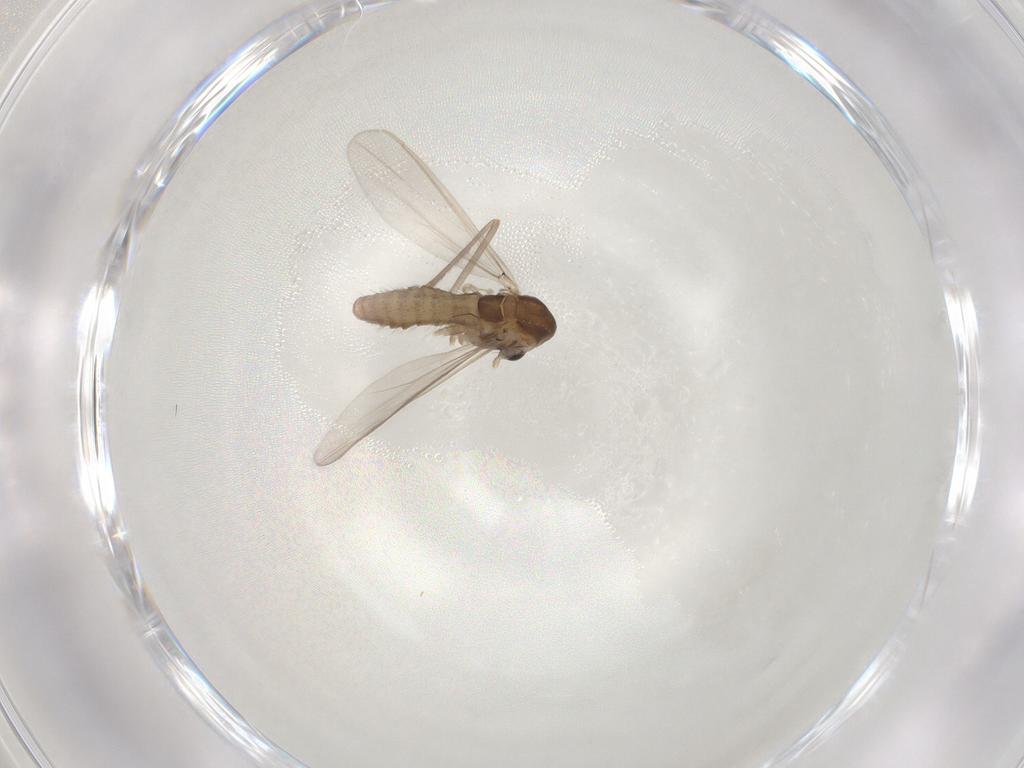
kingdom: Animalia
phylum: Arthropoda
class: Insecta
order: Diptera
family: Chironomidae
